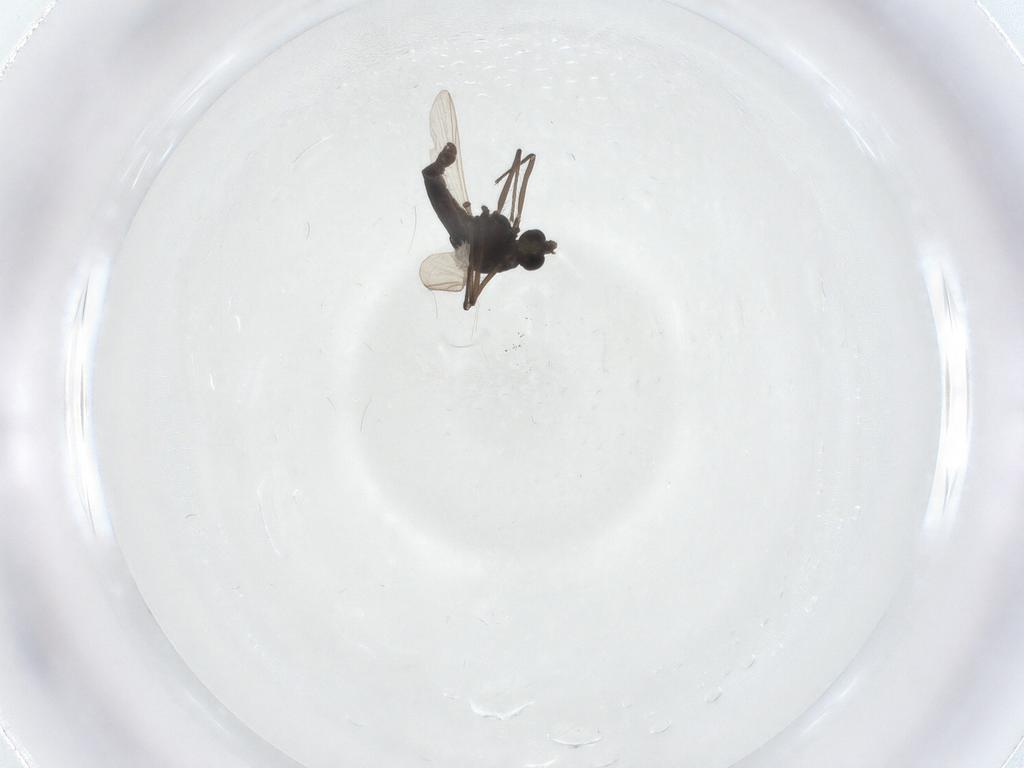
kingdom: Animalia
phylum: Arthropoda
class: Insecta
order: Diptera
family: Chironomidae
